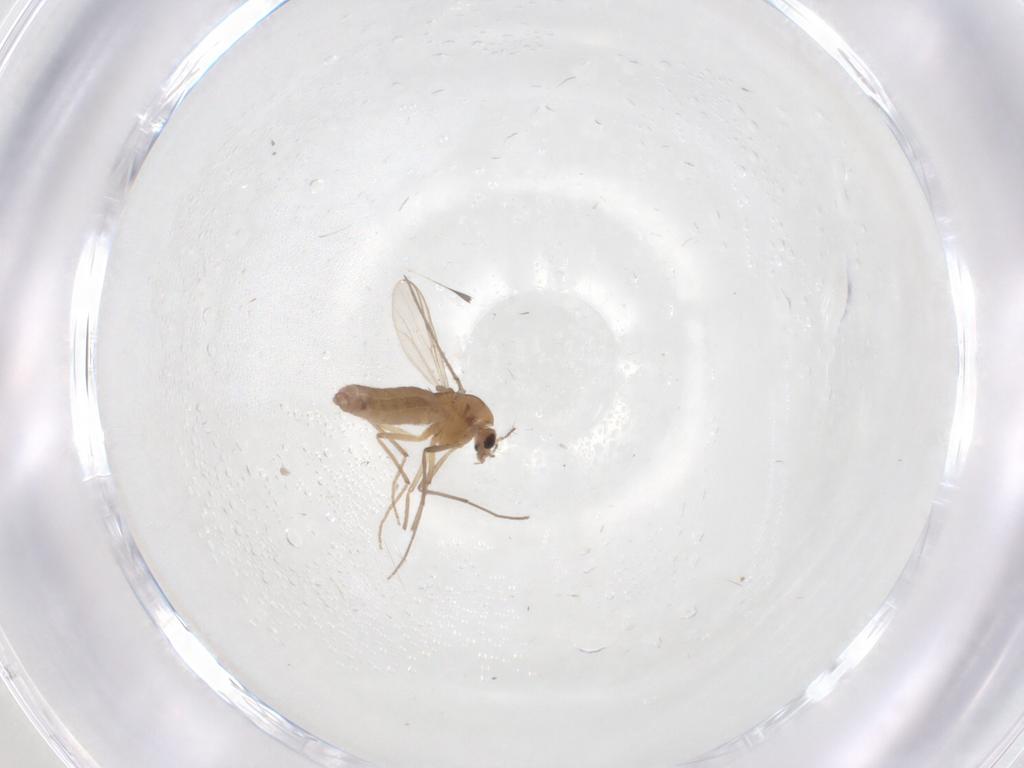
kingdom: Animalia
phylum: Arthropoda
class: Insecta
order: Diptera
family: Chironomidae
